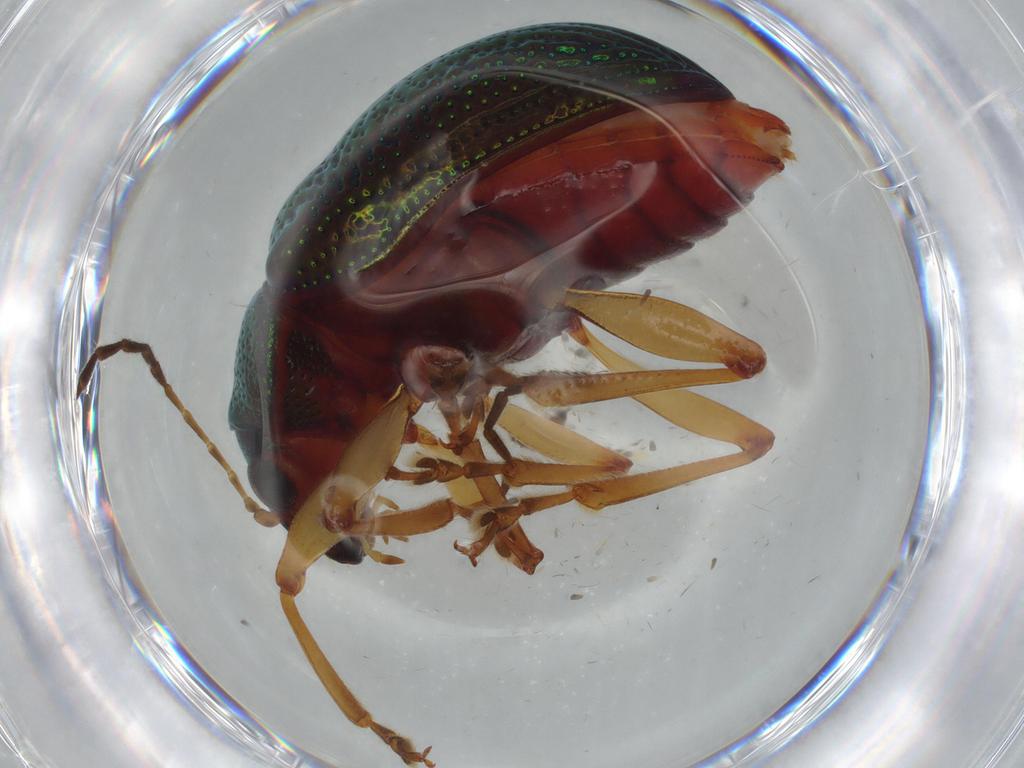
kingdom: Animalia
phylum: Arthropoda
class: Insecta
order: Coleoptera
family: Chrysomelidae
